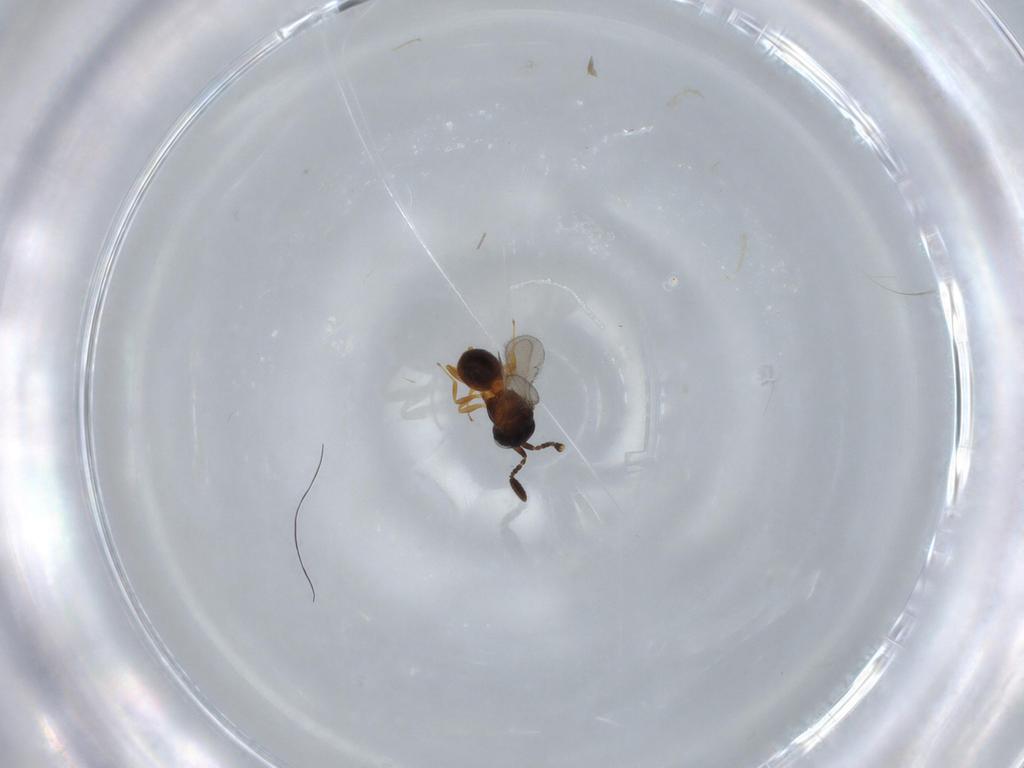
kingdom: Animalia
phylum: Arthropoda
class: Insecta
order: Hymenoptera
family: Scelionidae
